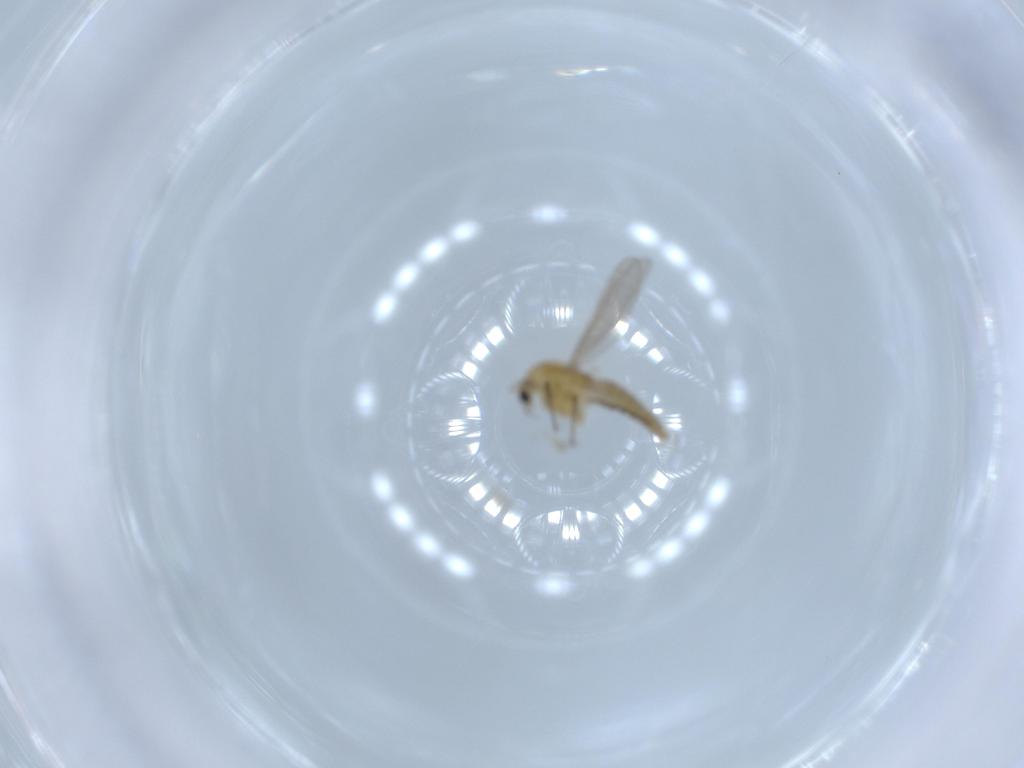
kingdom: Animalia
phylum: Arthropoda
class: Insecta
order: Diptera
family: Chironomidae
